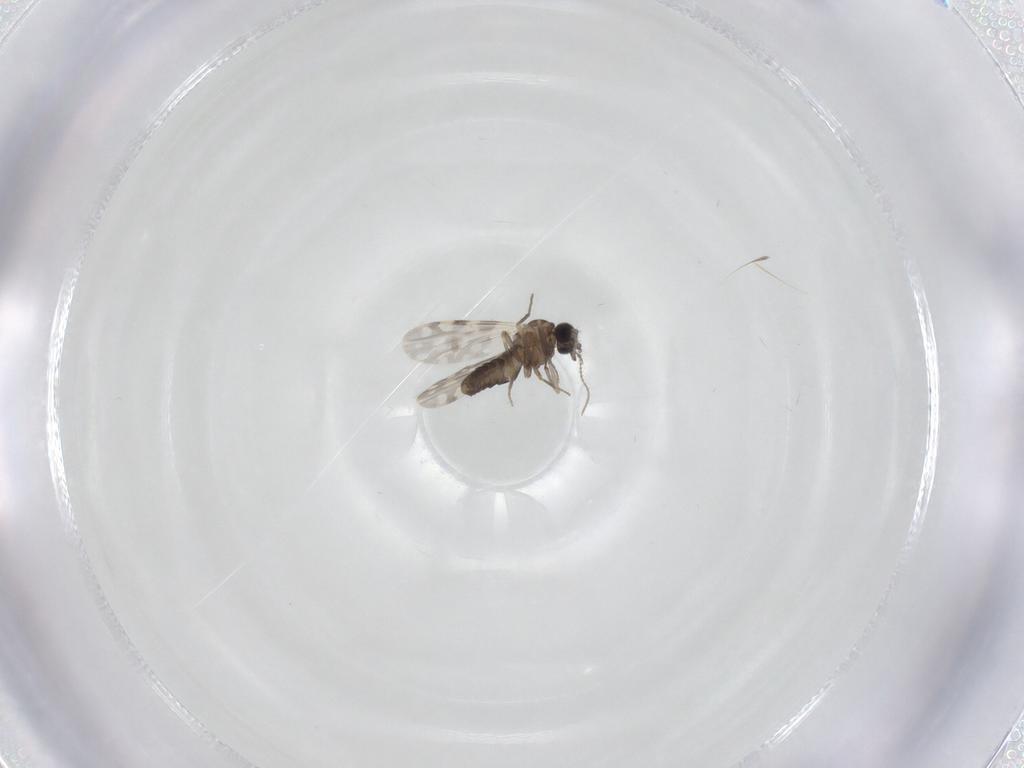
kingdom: Animalia
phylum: Arthropoda
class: Insecta
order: Diptera
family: Ceratopogonidae
